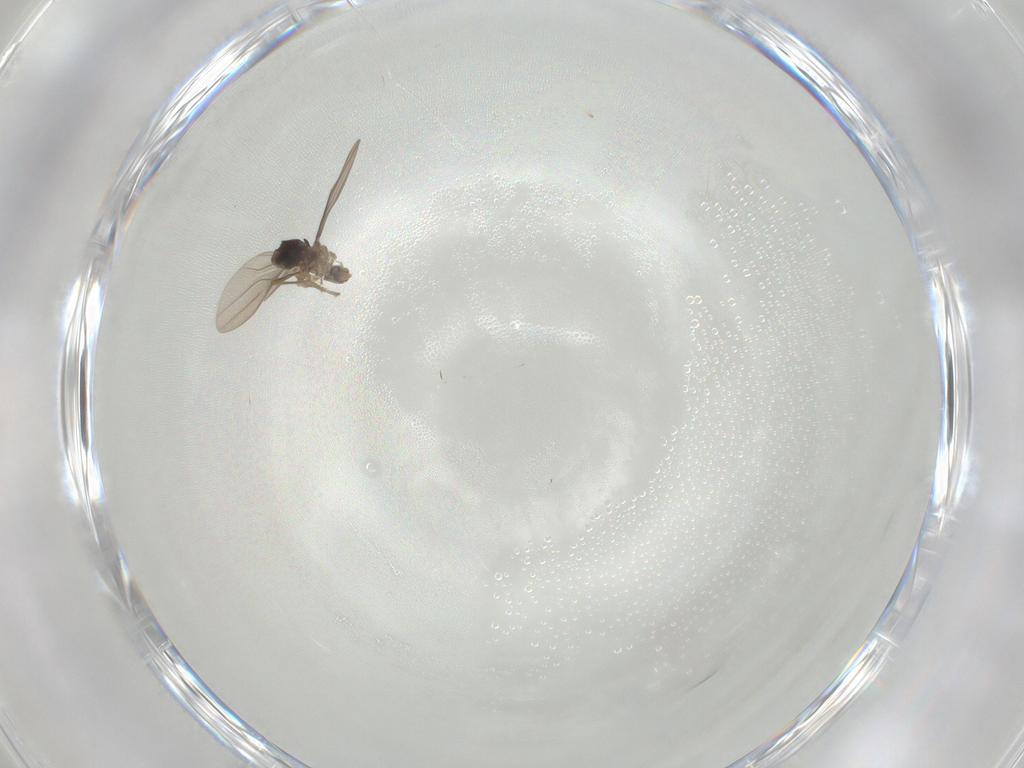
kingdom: Animalia
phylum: Arthropoda
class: Insecta
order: Diptera
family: Phoridae
